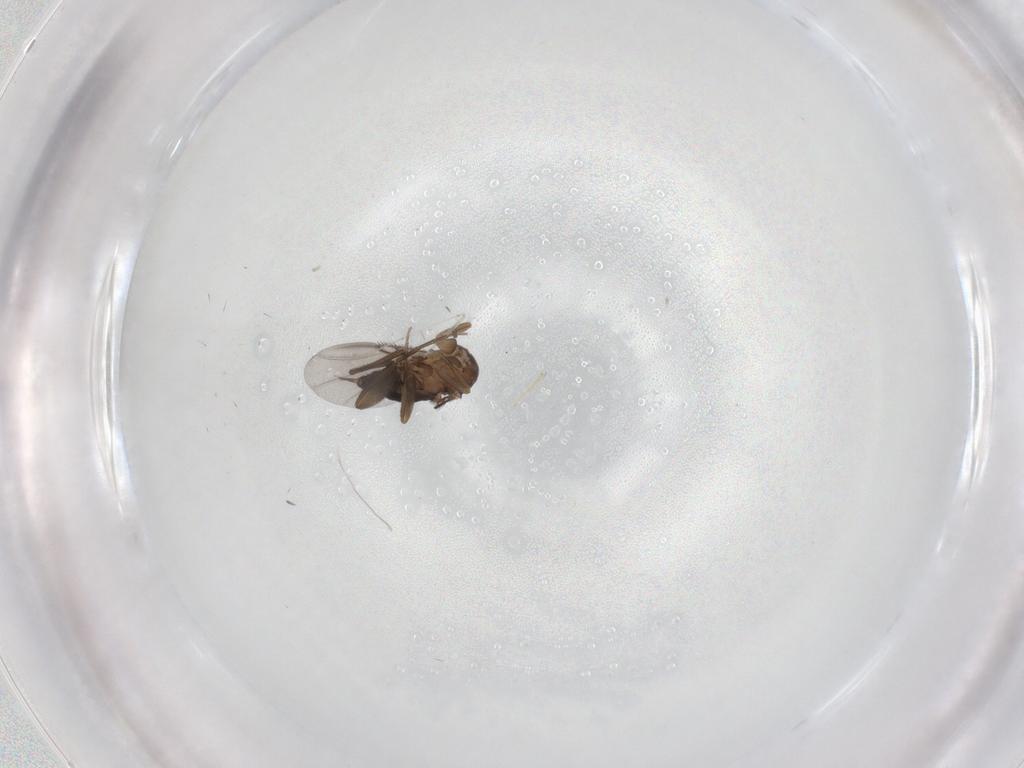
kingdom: Animalia
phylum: Arthropoda
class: Insecta
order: Diptera
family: Phoridae
